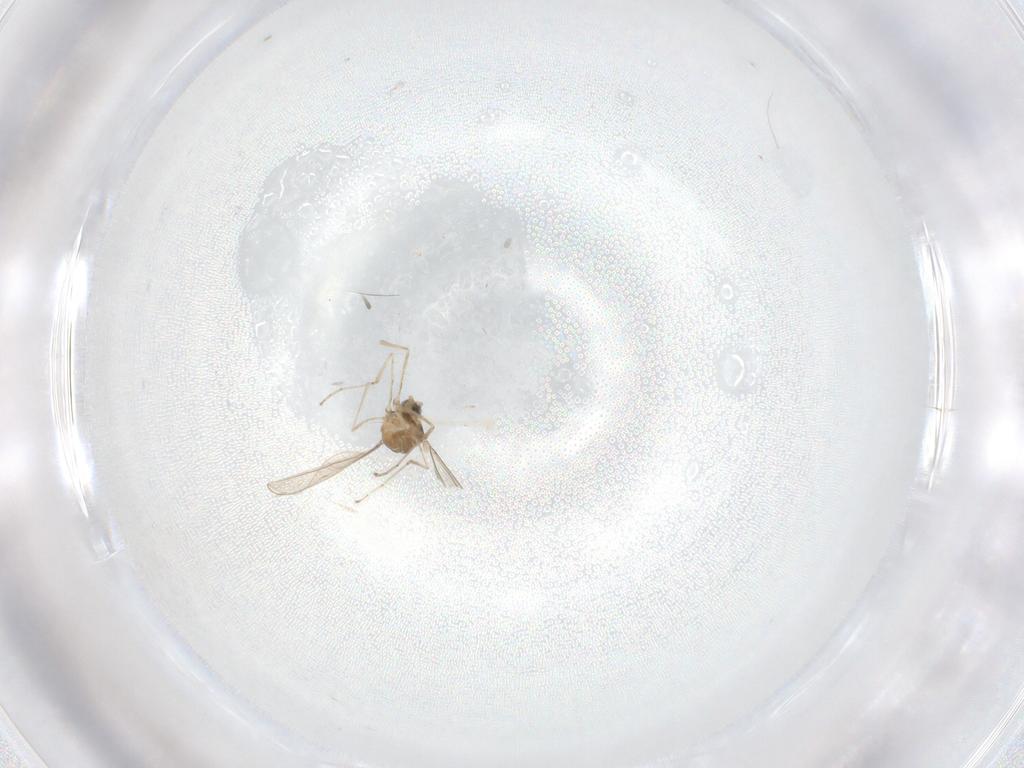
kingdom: Animalia
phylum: Arthropoda
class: Insecta
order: Diptera
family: Cecidomyiidae
